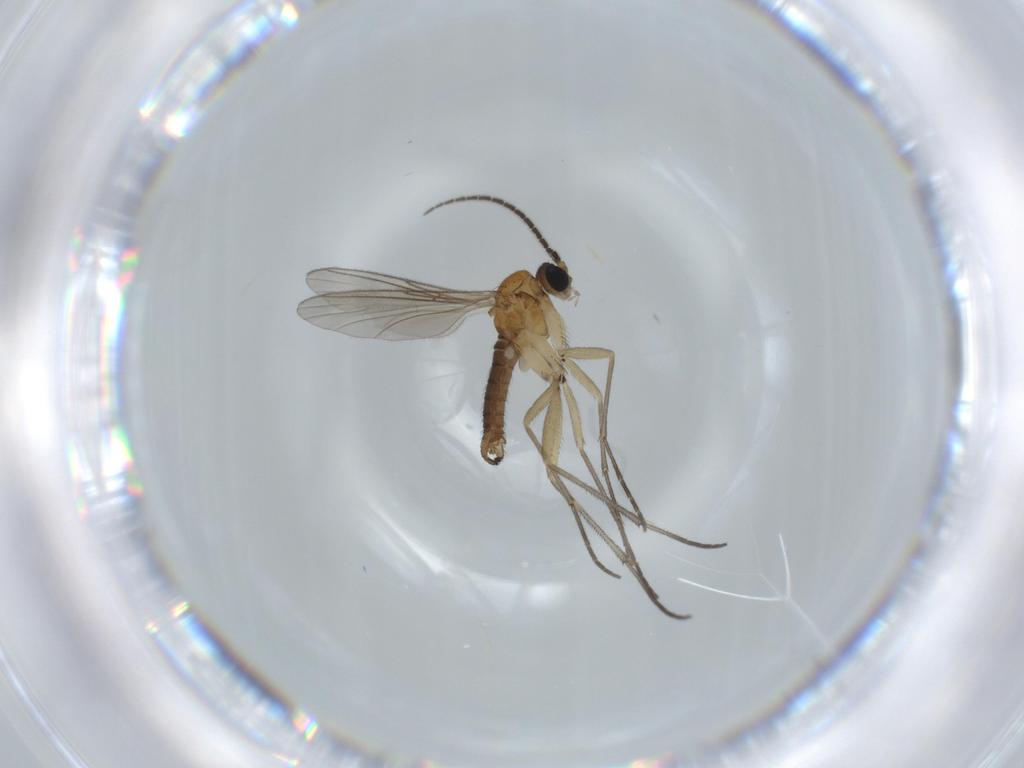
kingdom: Animalia
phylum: Arthropoda
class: Insecta
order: Diptera
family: Sciaridae
